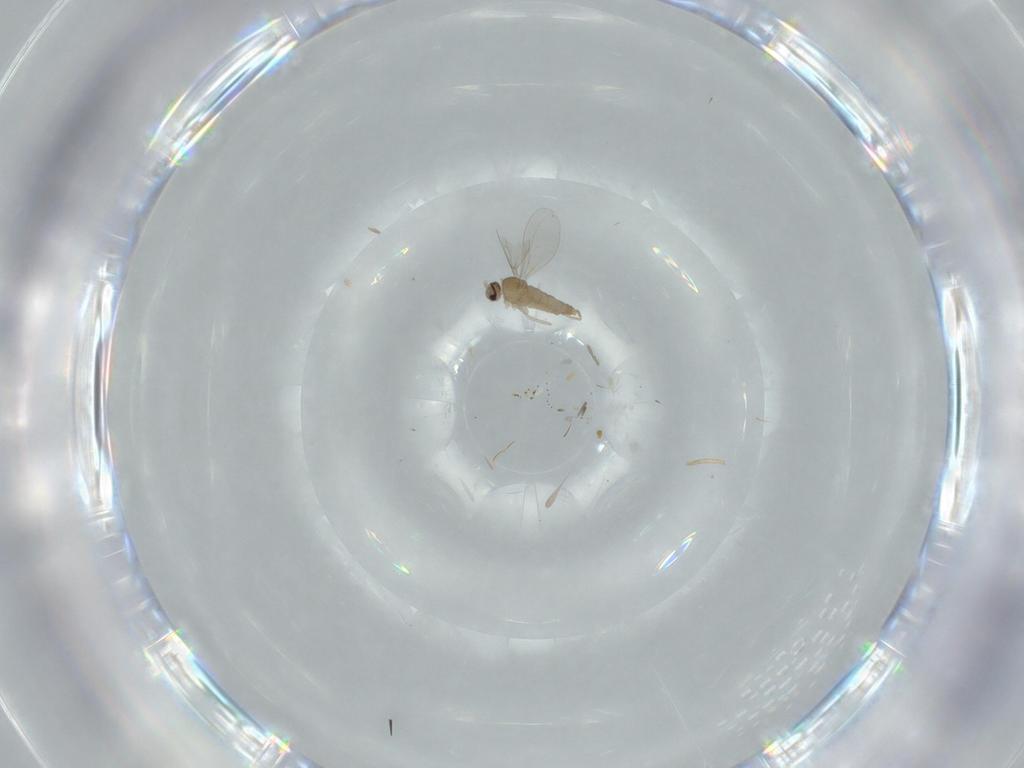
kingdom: Animalia
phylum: Arthropoda
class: Insecta
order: Diptera
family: Cecidomyiidae
